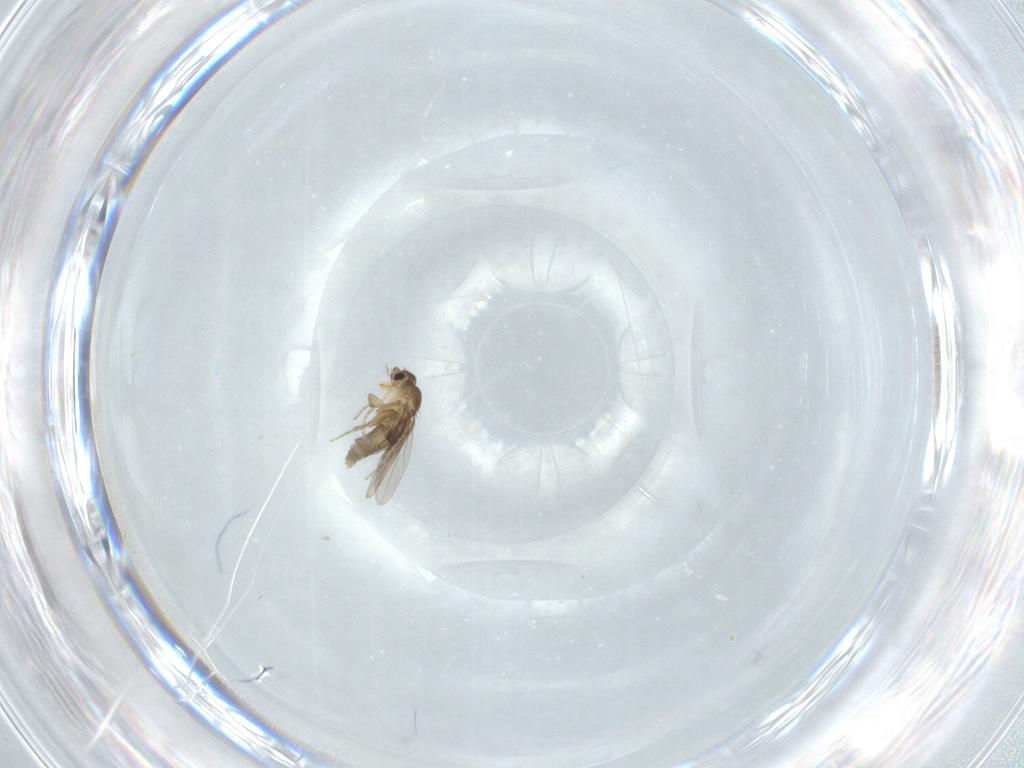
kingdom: Animalia
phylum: Arthropoda
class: Insecta
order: Diptera
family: Phoridae
